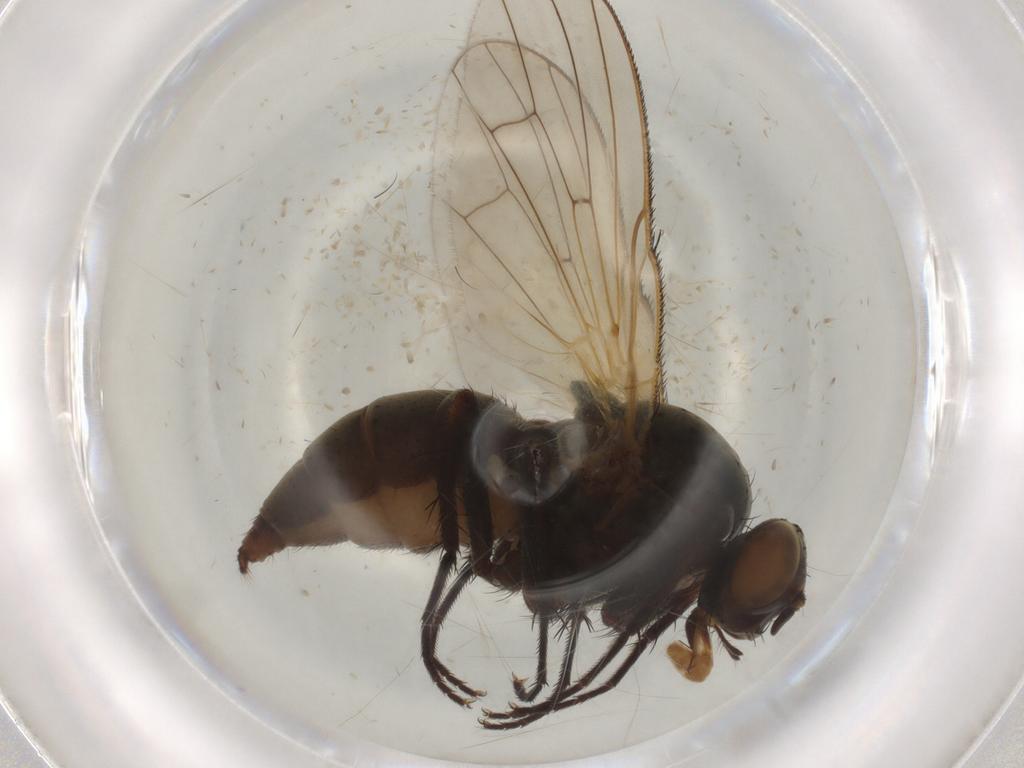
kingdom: Animalia
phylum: Arthropoda
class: Insecta
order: Diptera
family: Anthomyiidae
